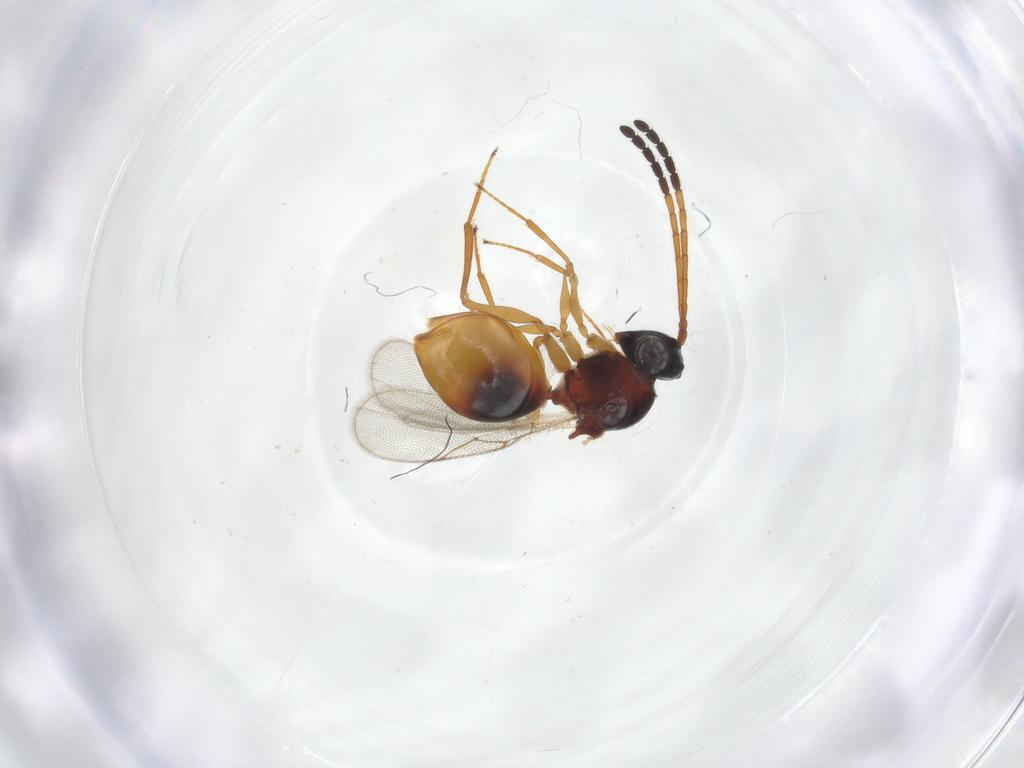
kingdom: Animalia
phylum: Arthropoda
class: Insecta
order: Hymenoptera
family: Figitidae
